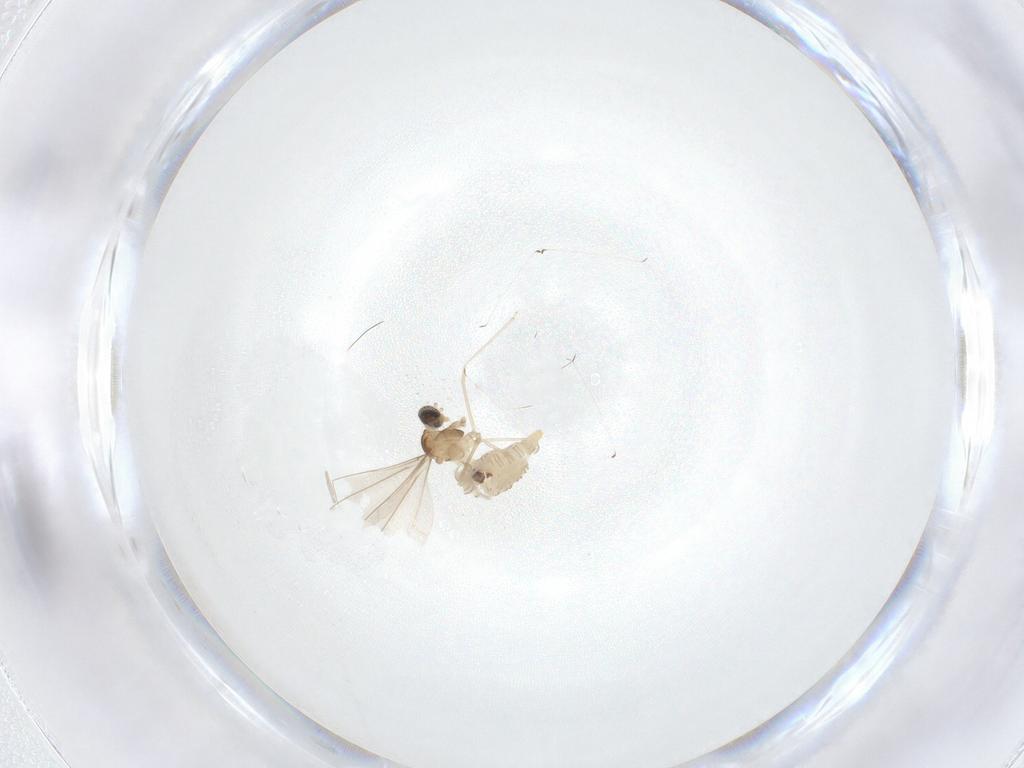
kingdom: Animalia
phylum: Arthropoda
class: Insecta
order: Diptera
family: Cecidomyiidae
